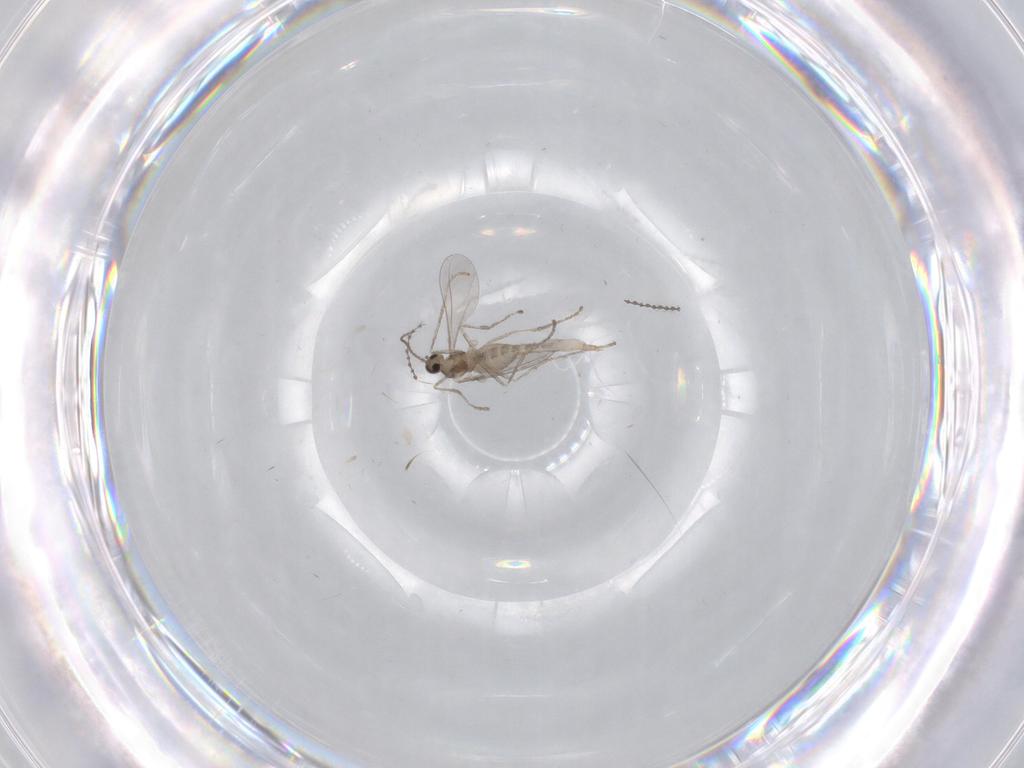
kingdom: Animalia
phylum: Arthropoda
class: Insecta
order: Diptera
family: Cecidomyiidae
